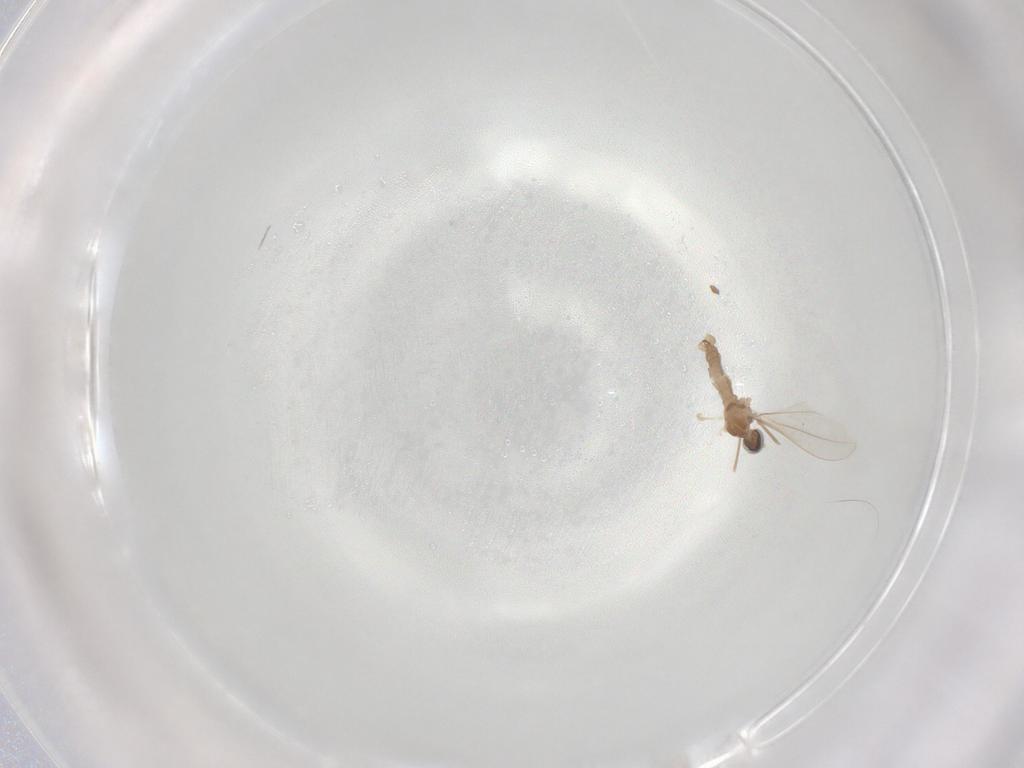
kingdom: Animalia
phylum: Arthropoda
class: Insecta
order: Diptera
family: Cecidomyiidae
